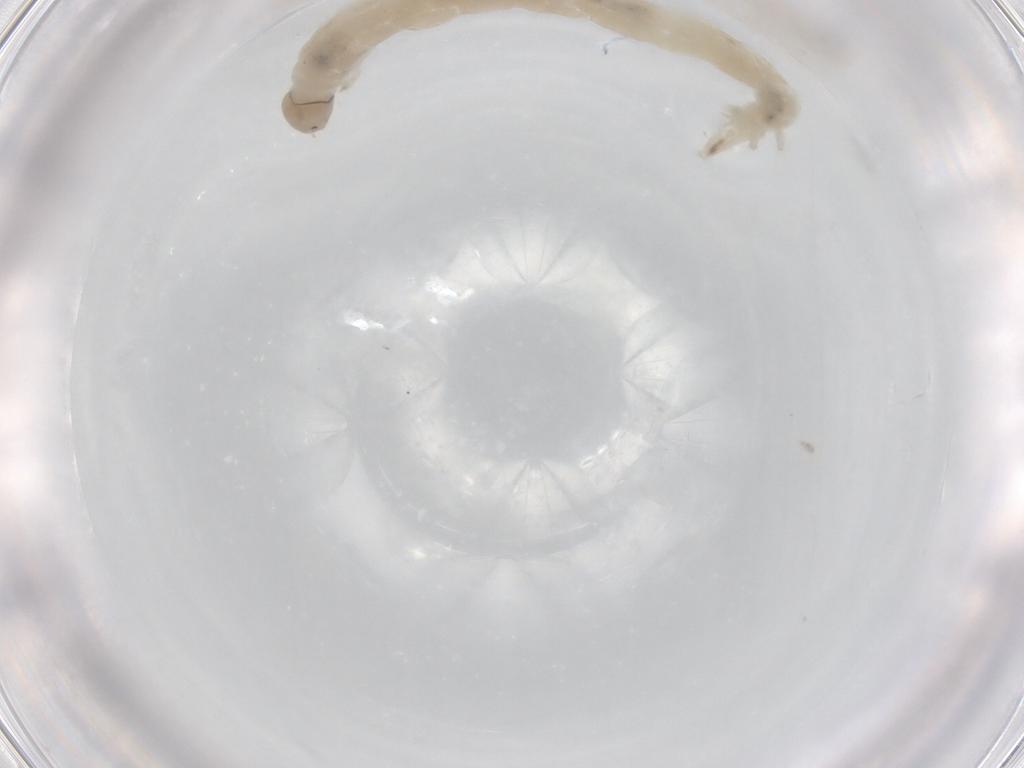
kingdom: Animalia
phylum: Arthropoda
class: Insecta
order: Diptera
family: Chironomidae
